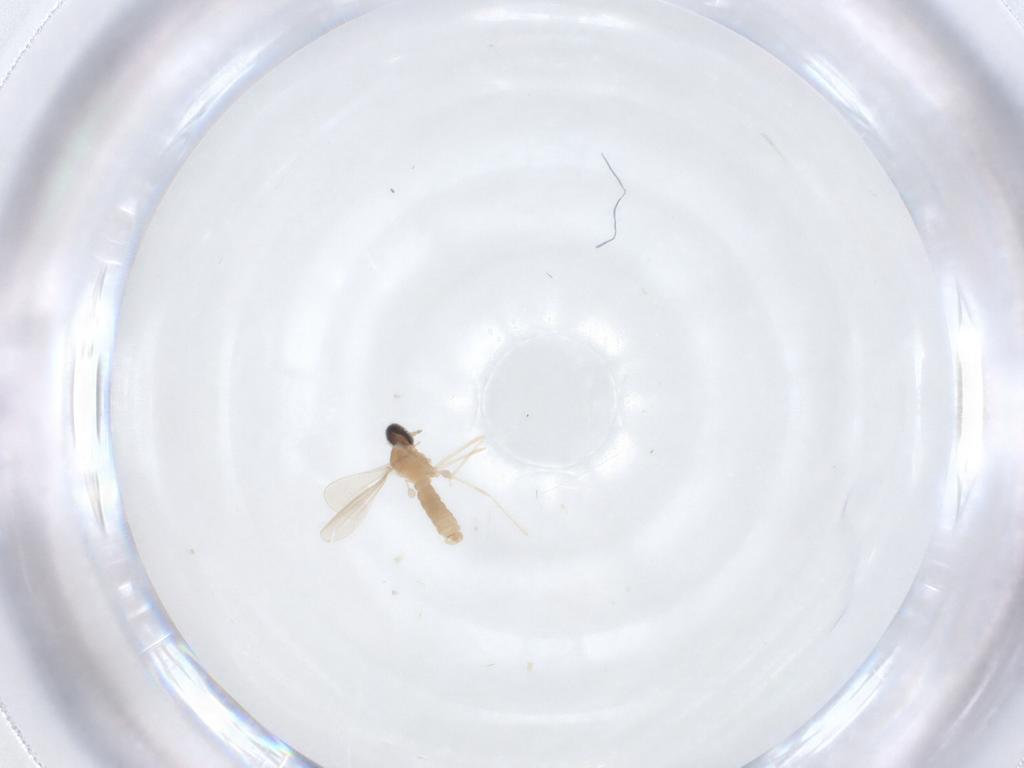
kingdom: Animalia
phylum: Arthropoda
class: Insecta
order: Diptera
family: Cecidomyiidae
